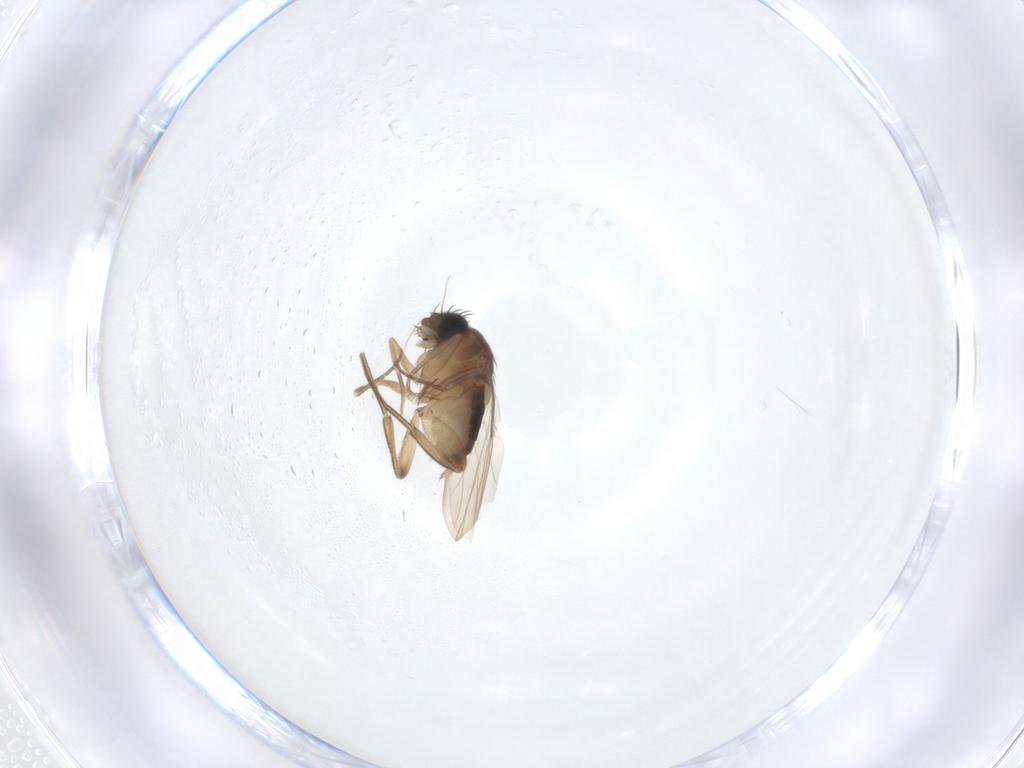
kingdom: Animalia
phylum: Arthropoda
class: Insecta
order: Diptera
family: Phoridae
